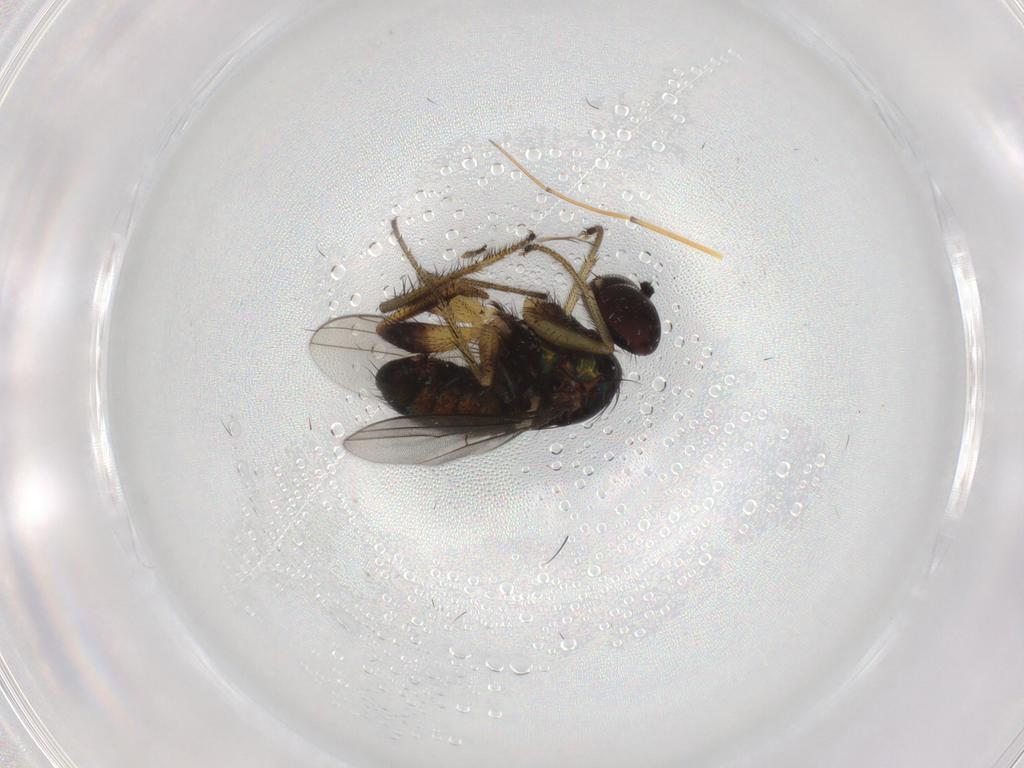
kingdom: Animalia
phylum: Arthropoda
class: Insecta
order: Diptera
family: Dolichopodidae
